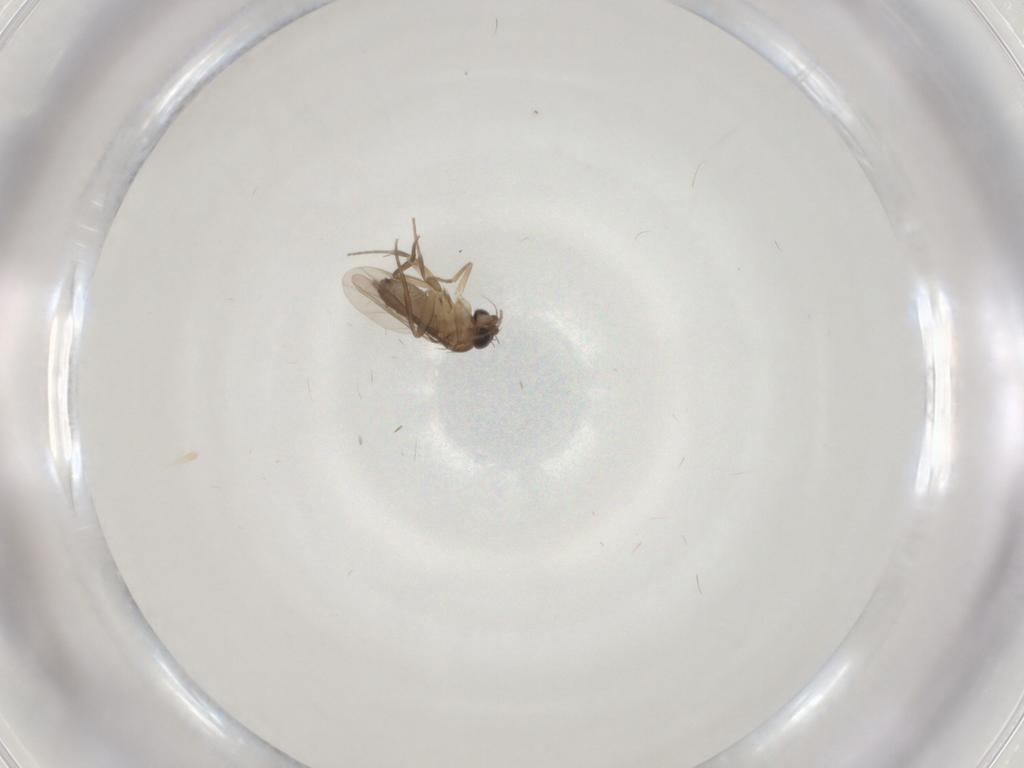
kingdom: Animalia
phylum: Arthropoda
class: Insecta
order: Diptera
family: Phoridae
